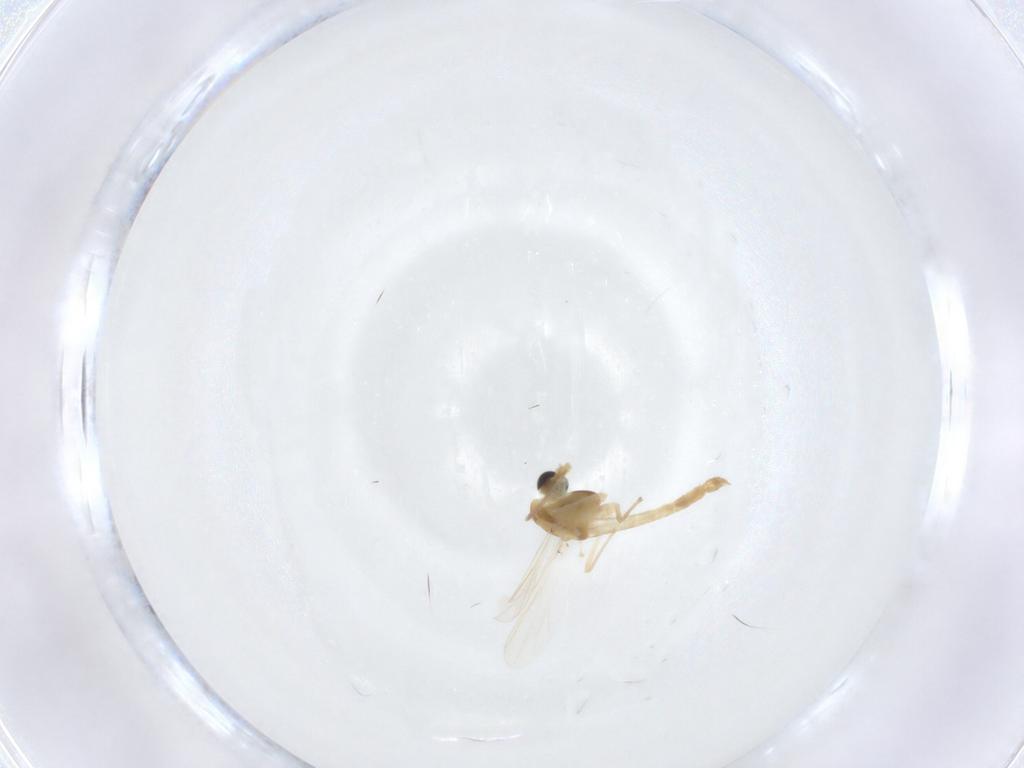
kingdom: Animalia
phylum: Arthropoda
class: Insecta
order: Diptera
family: Chironomidae
